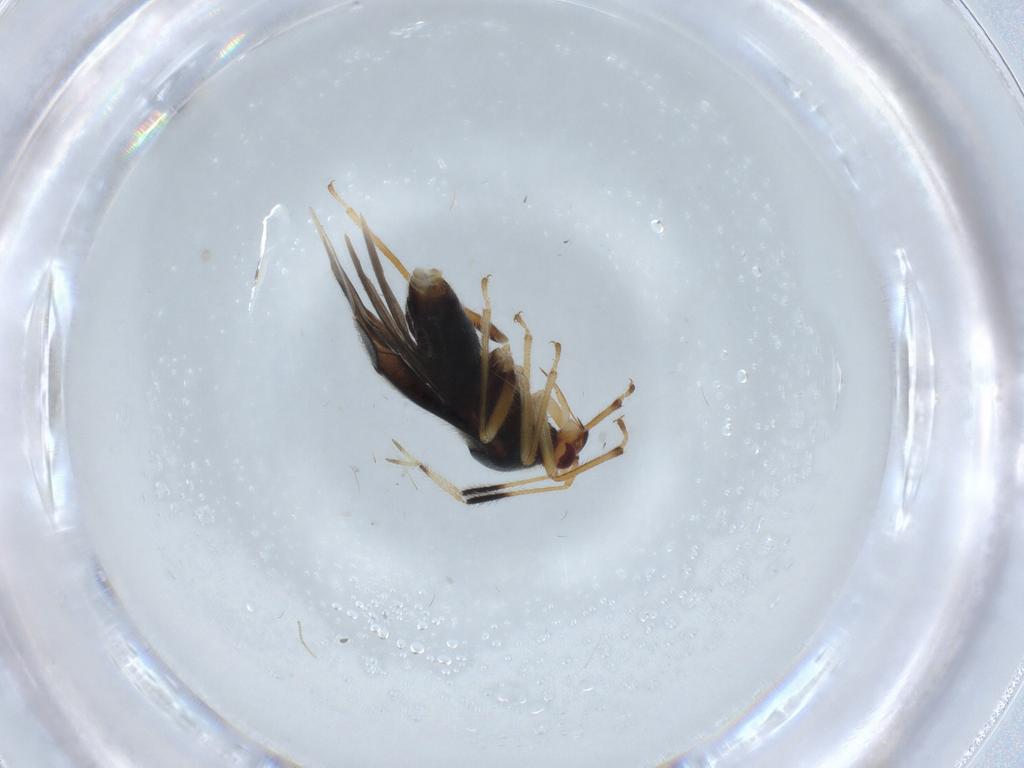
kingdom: Animalia
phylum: Arthropoda
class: Insecta
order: Hemiptera
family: Miridae
